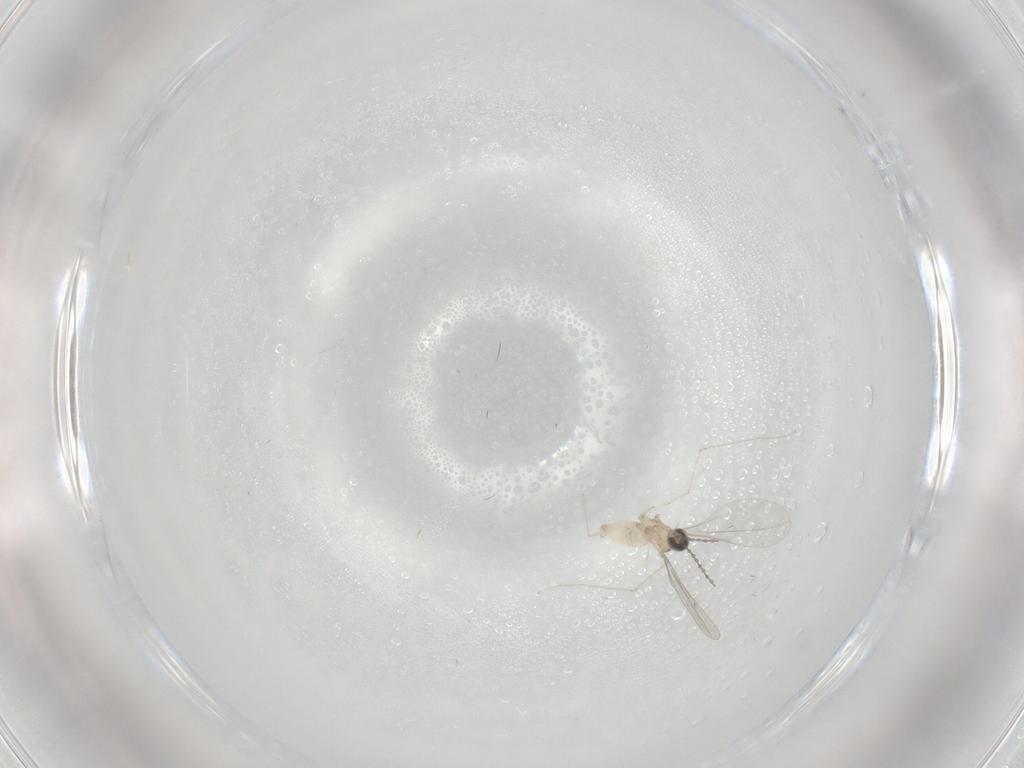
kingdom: Animalia
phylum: Arthropoda
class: Insecta
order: Diptera
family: Cecidomyiidae
